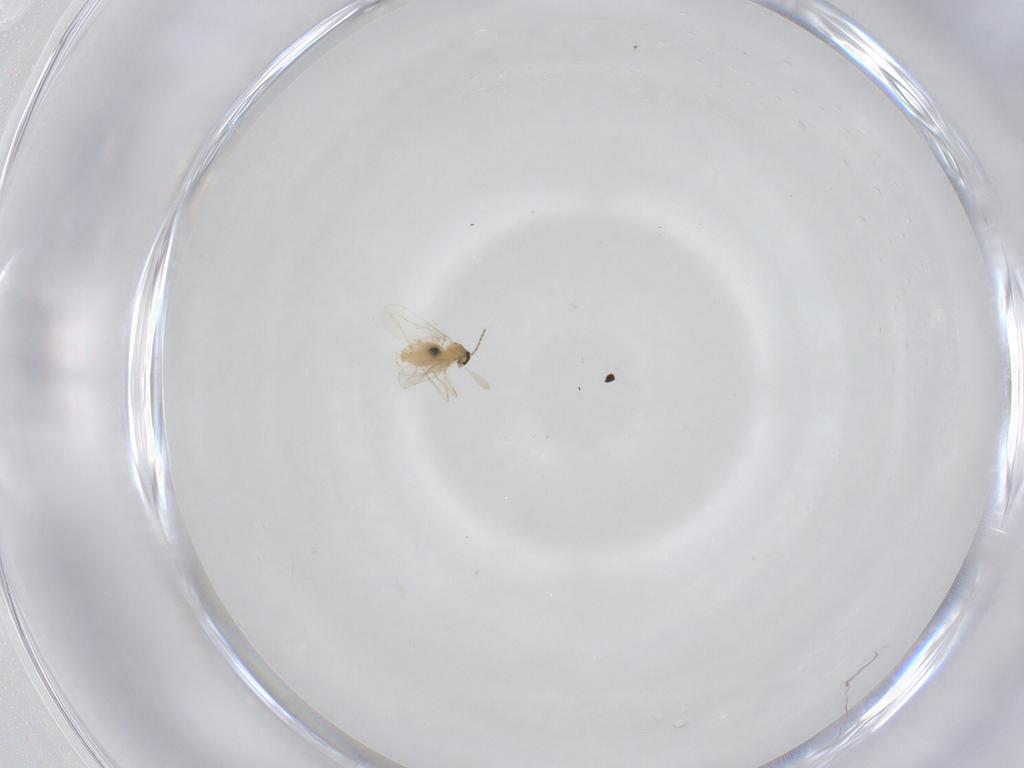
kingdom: Animalia
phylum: Arthropoda
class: Insecta
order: Diptera
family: Cecidomyiidae
